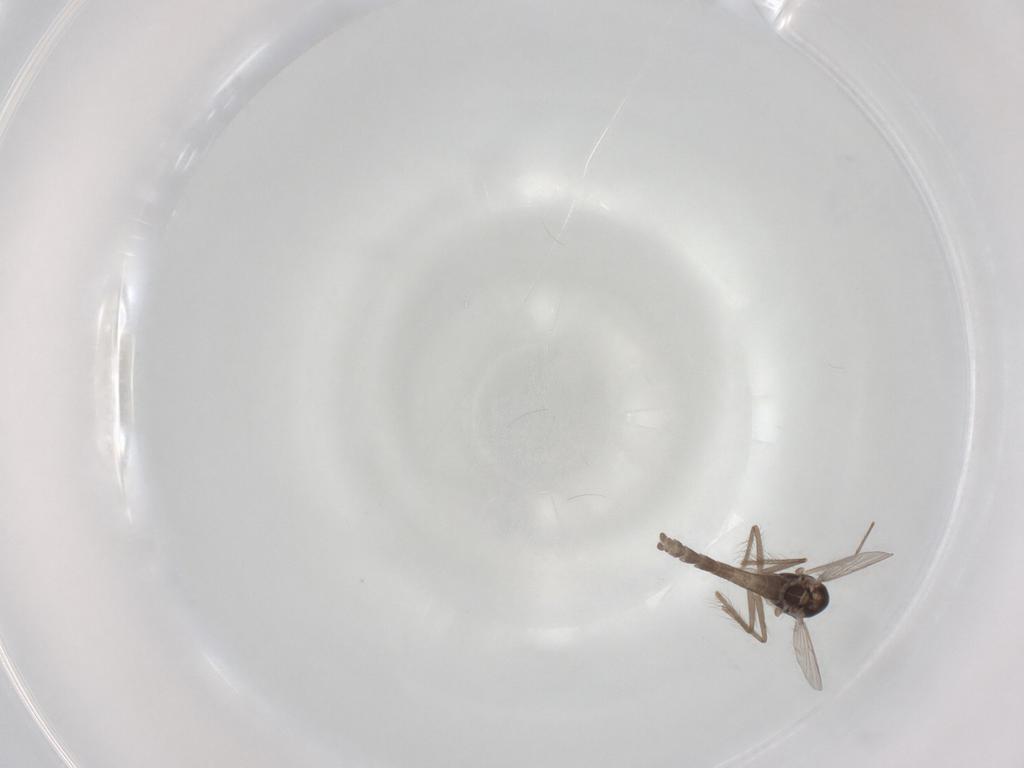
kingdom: Animalia
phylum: Arthropoda
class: Insecta
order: Diptera
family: Chironomidae
